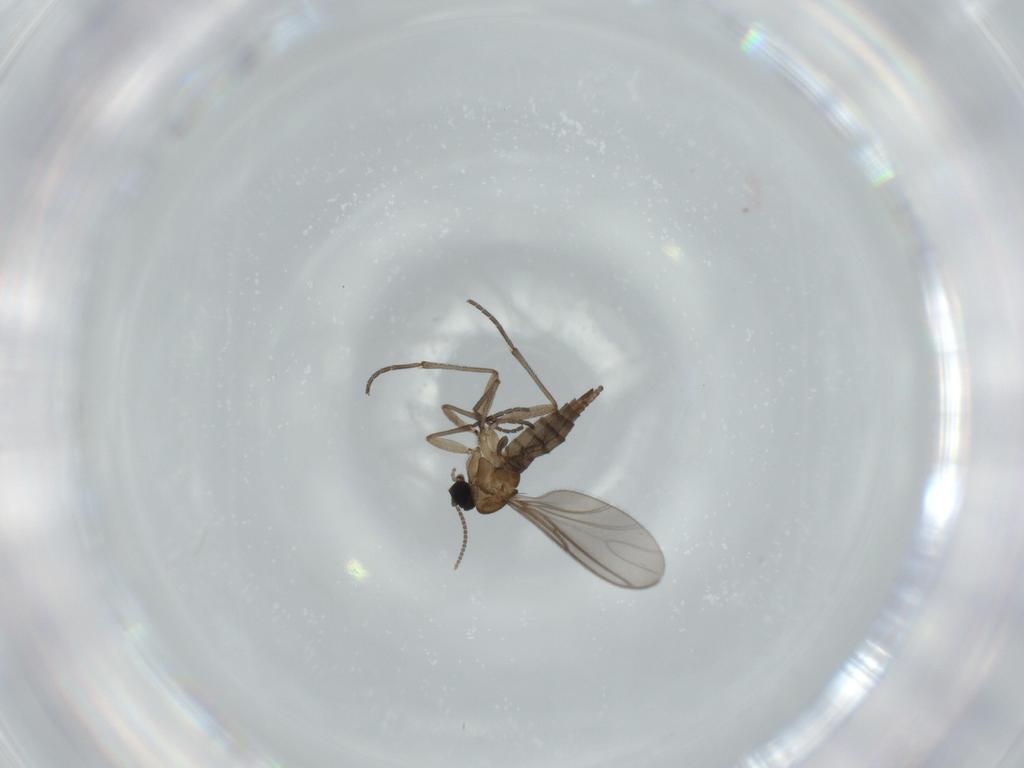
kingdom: Animalia
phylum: Arthropoda
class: Insecta
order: Diptera
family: Sciaridae
